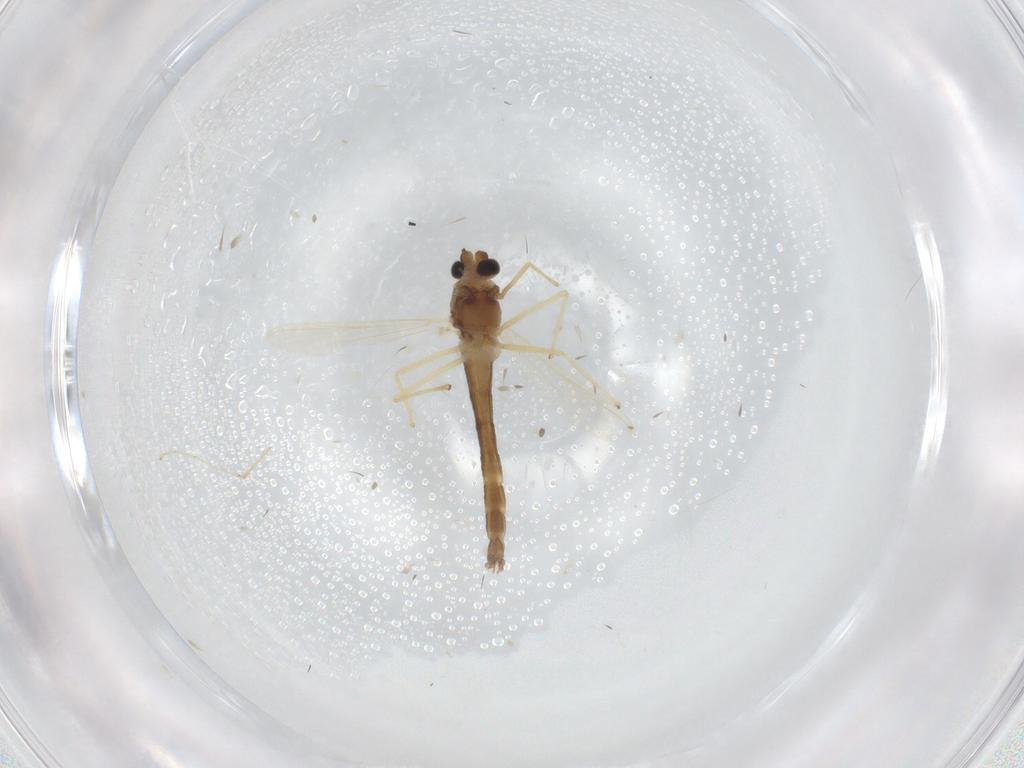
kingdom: Animalia
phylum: Arthropoda
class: Insecta
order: Diptera
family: Chironomidae
